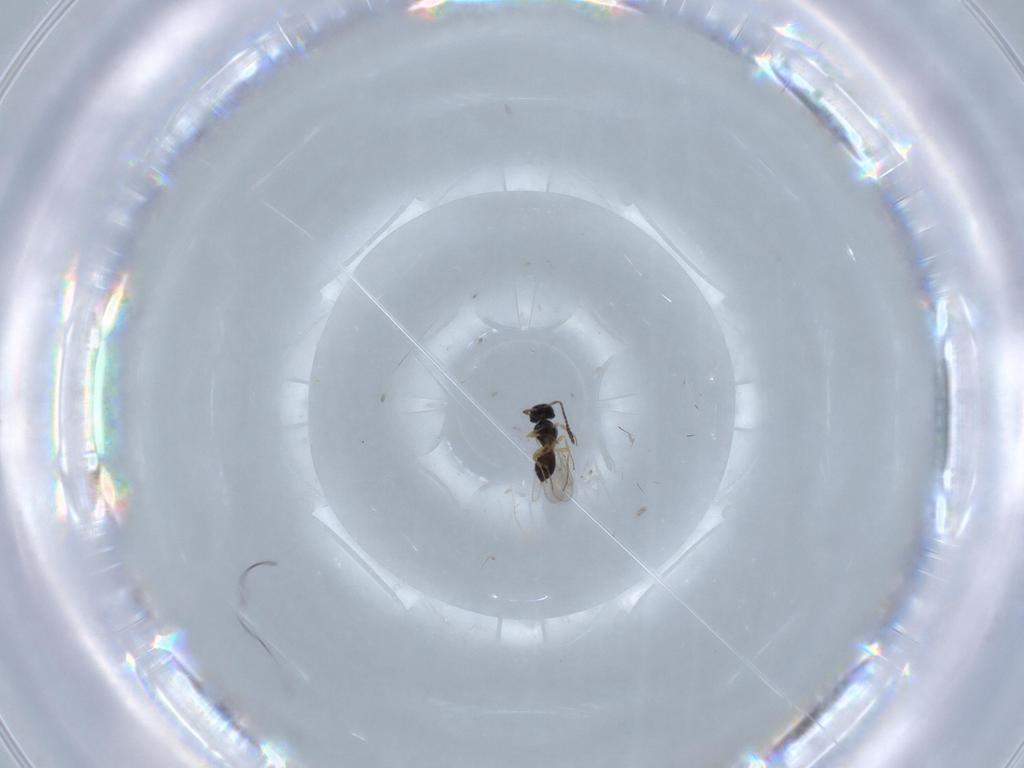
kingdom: Animalia
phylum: Arthropoda
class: Insecta
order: Hymenoptera
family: Scelionidae
